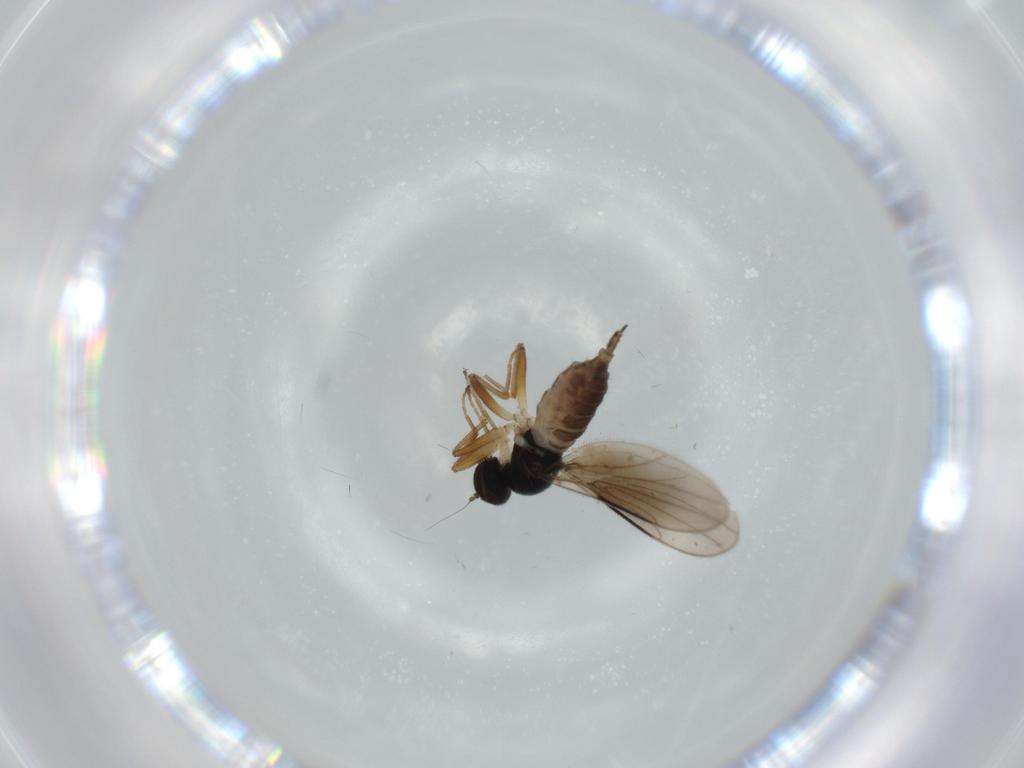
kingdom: Animalia
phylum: Arthropoda
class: Insecta
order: Diptera
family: Hybotidae
